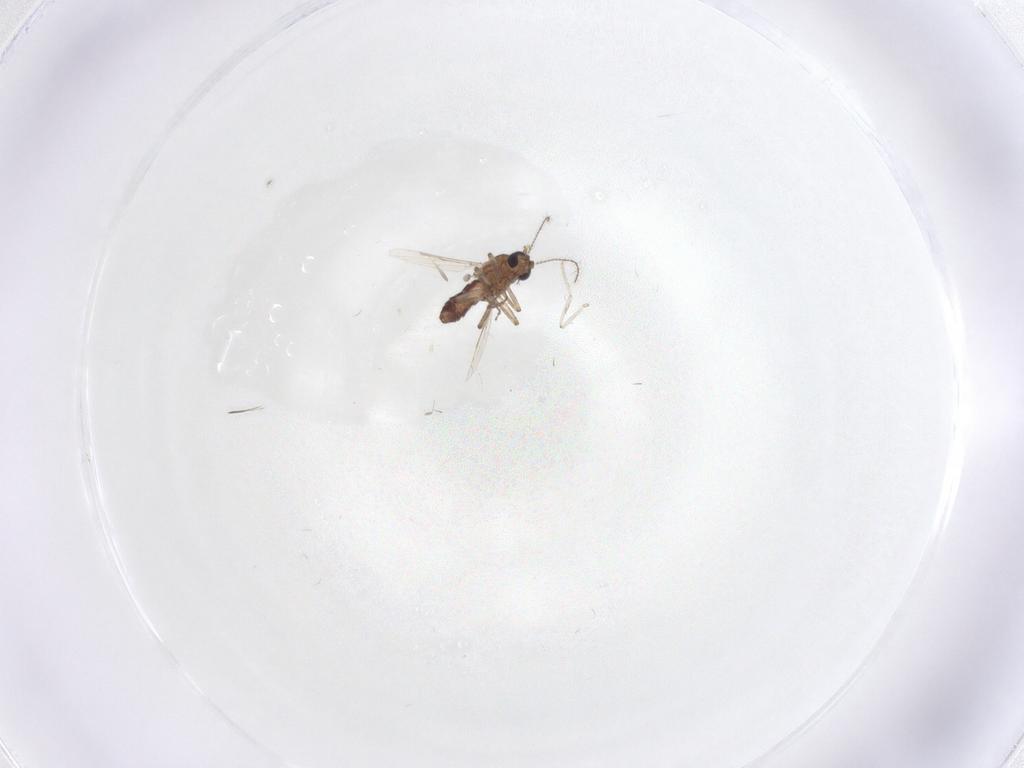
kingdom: Animalia
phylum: Arthropoda
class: Insecta
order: Diptera
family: Ceratopogonidae
